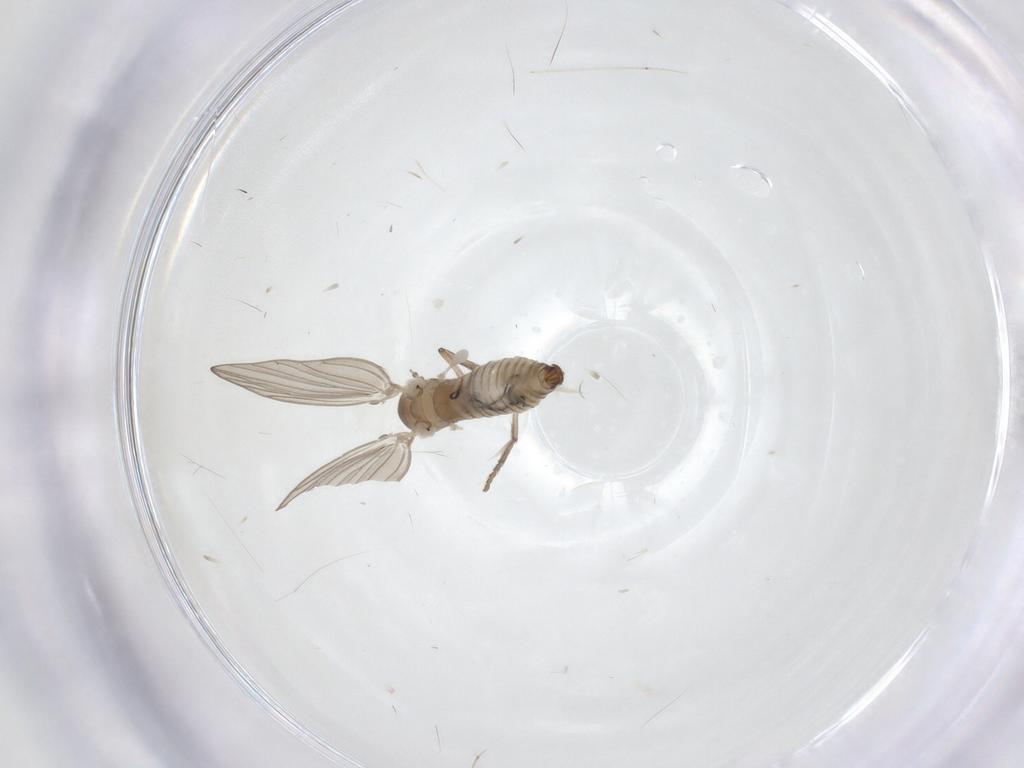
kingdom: Animalia
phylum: Arthropoda
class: Insecta
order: Diptera
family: Psychodidae
